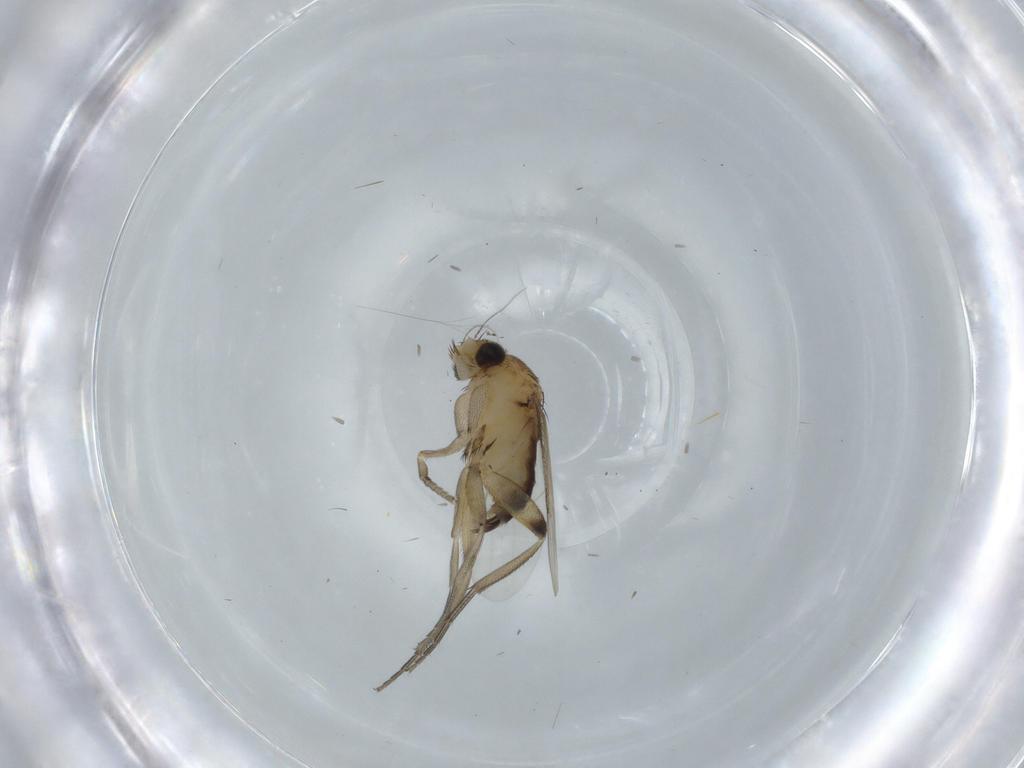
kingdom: Animalia
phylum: Arthropoda
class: Insecta
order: Diptera
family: Phoridae
